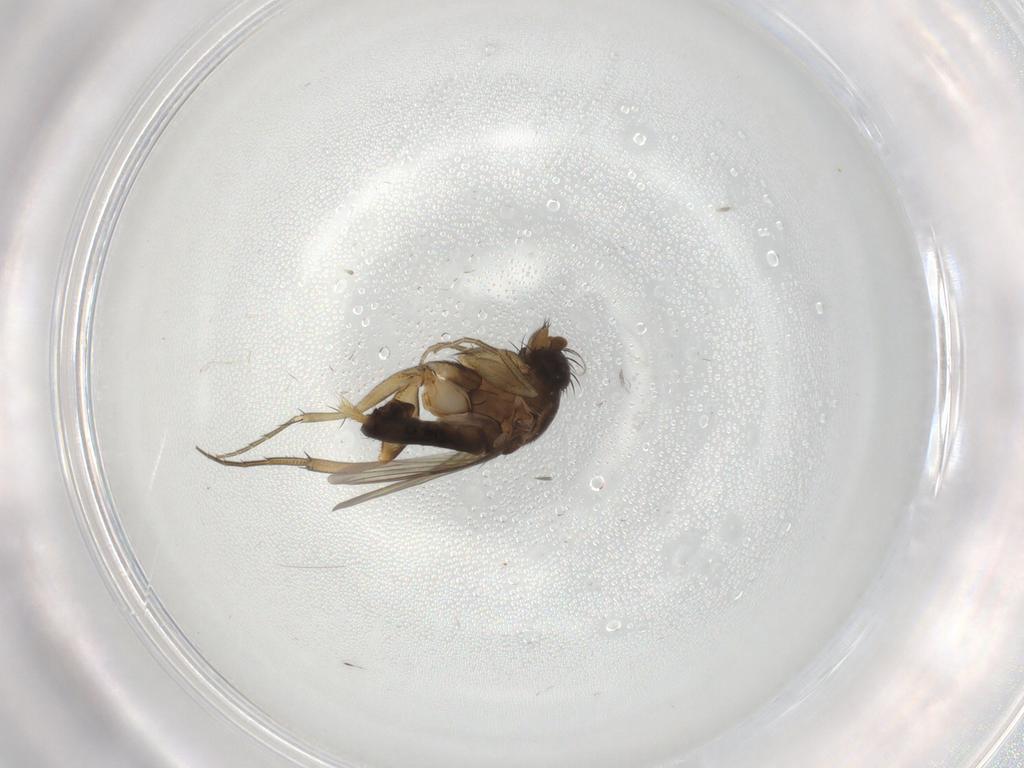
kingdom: Animalia
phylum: Arthropoda
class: Insecta
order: Diptera
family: Phoridae
